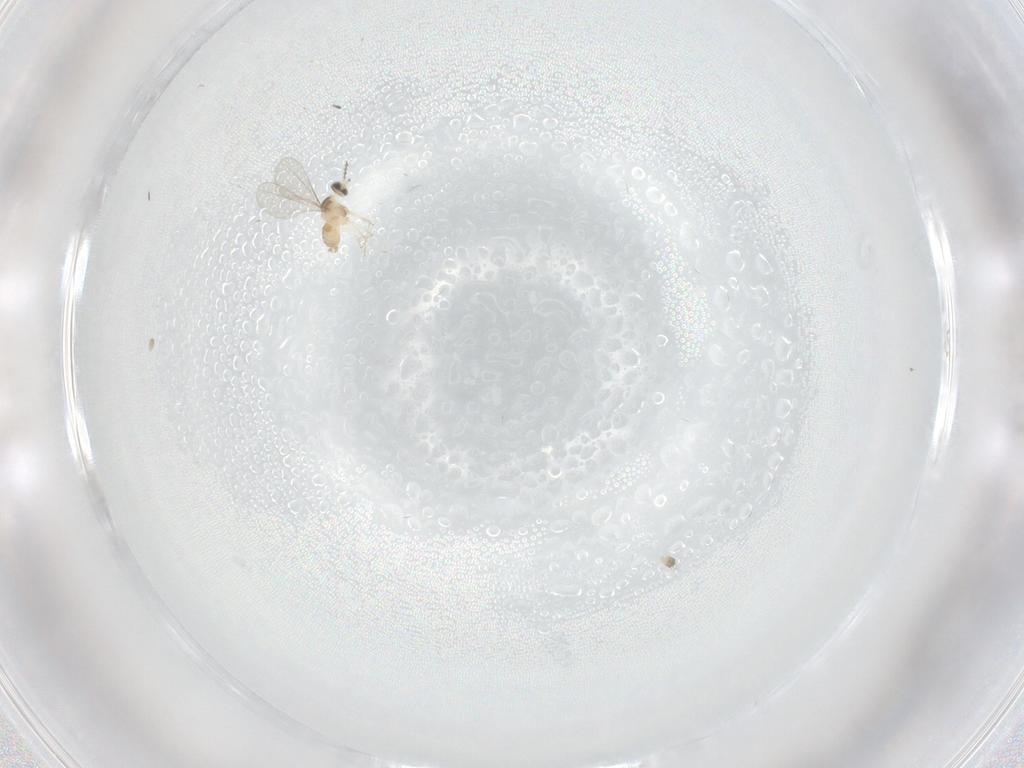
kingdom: Animalia
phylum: Arthropoda
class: Insecta
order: Diptera
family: Cecidomyiidae
